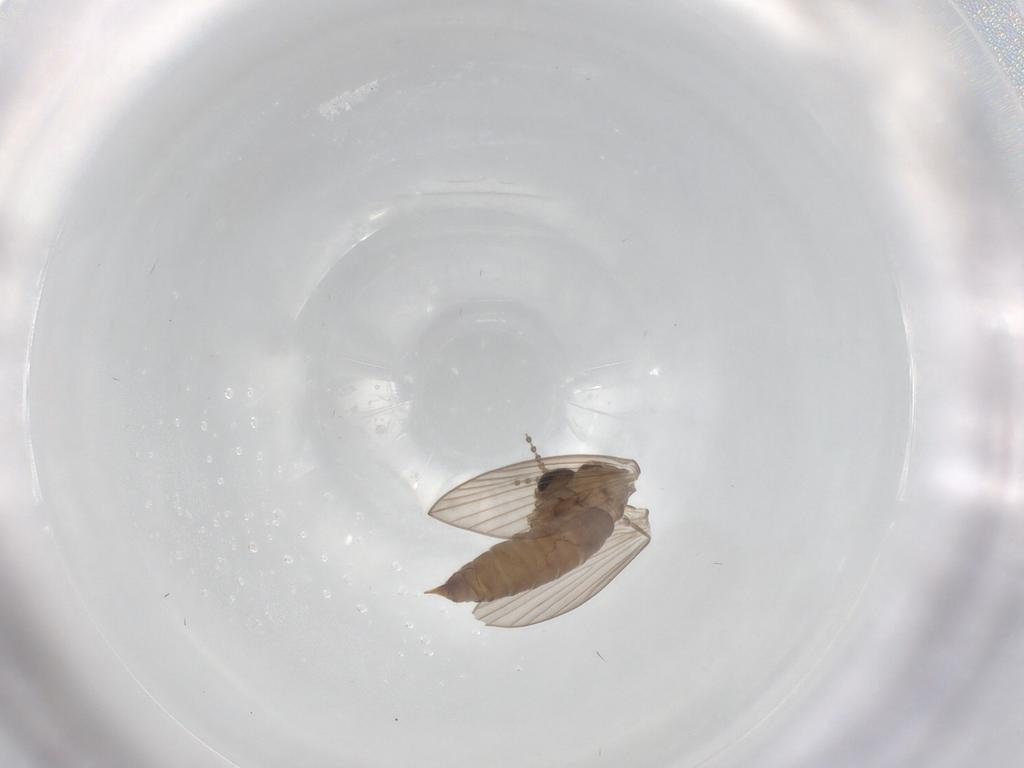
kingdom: Animalia
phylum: Arthropoda
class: Insecta
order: Diptera
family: Psychodidae
